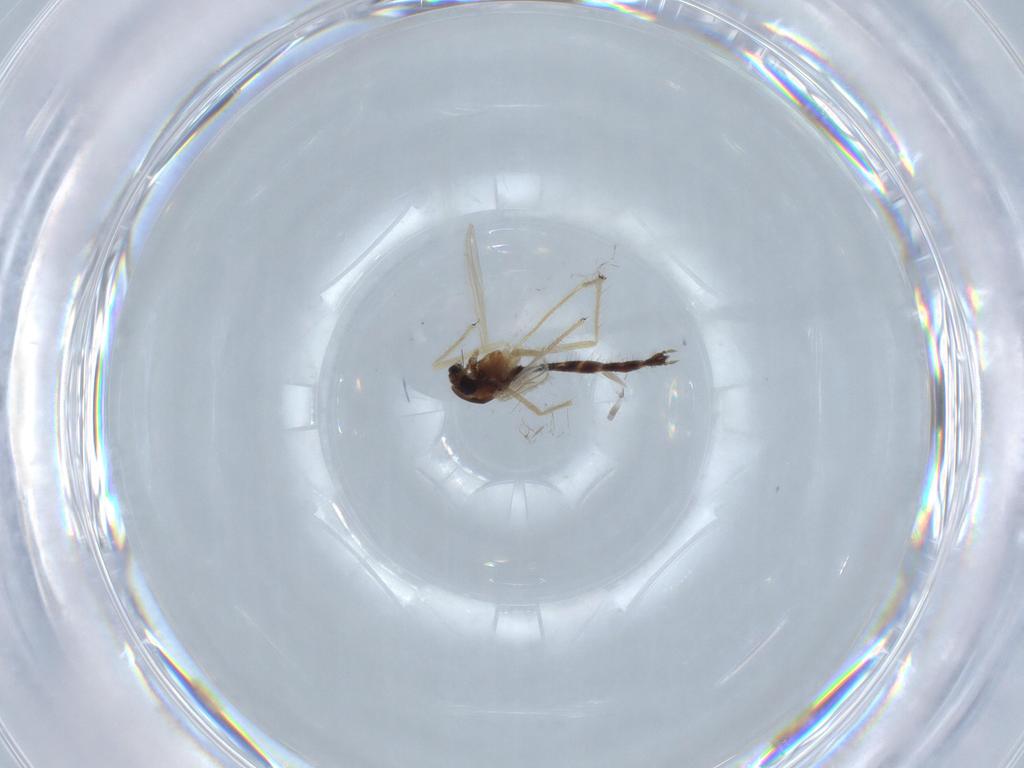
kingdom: Animalia
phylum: Arthropoda
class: Insecta
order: Diptera
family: Chironomidae
